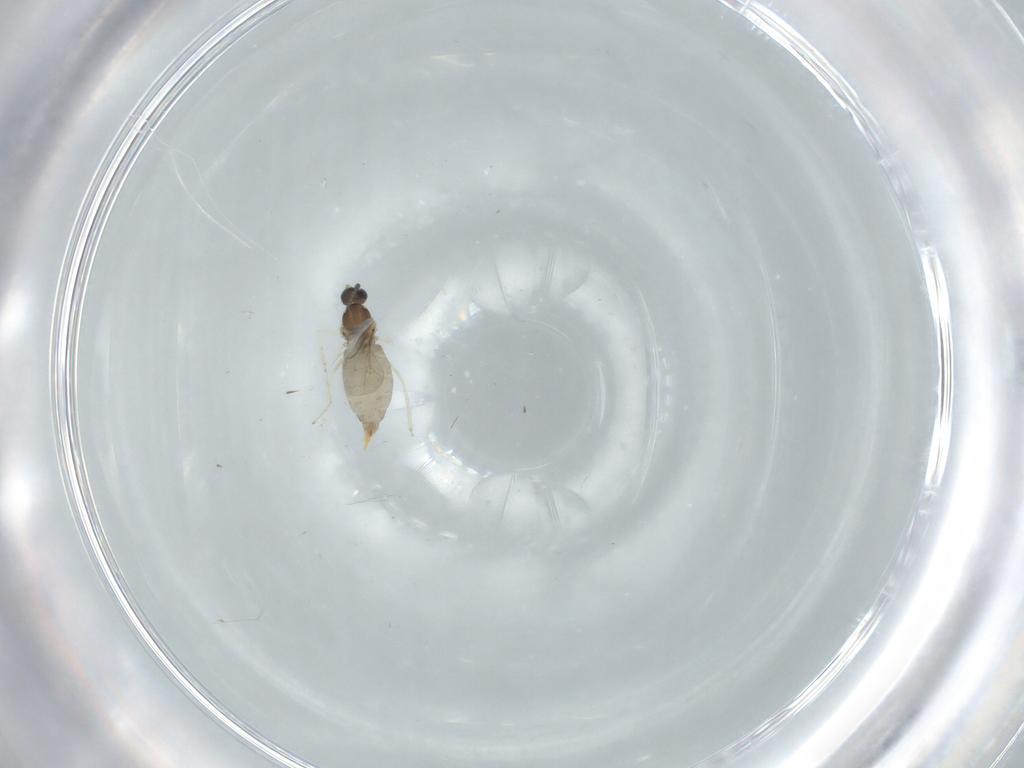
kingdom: Animalia
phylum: Arthropoda
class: Insecta
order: Diptera
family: Cecidomyiidae
